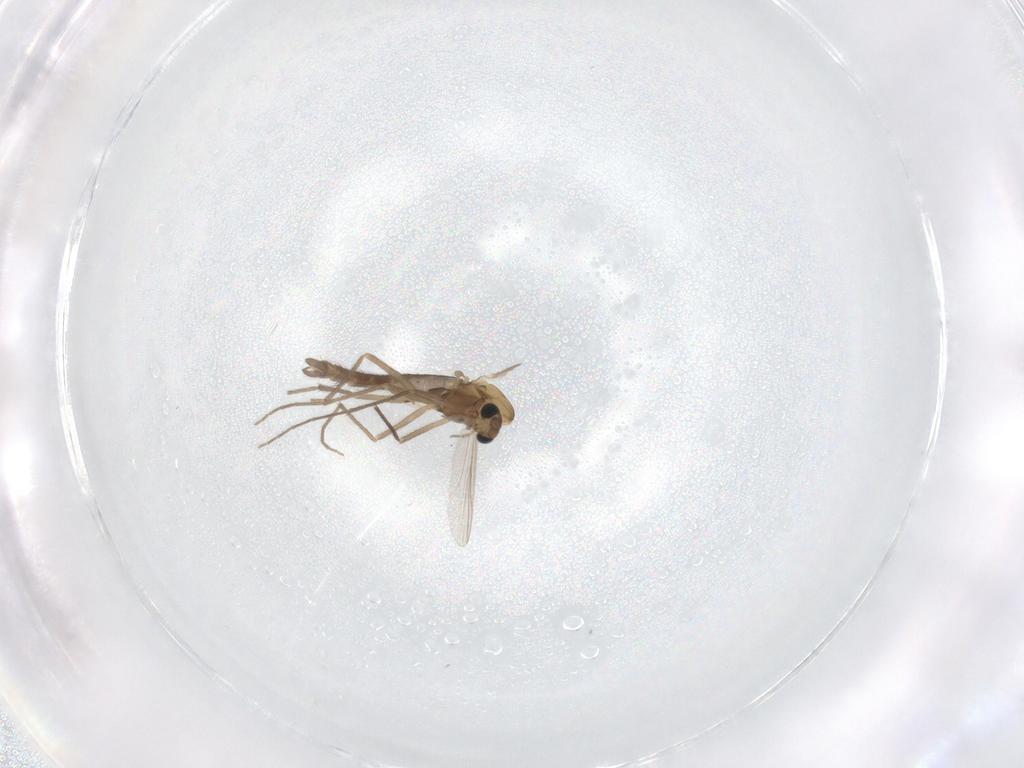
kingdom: Animalia
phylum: Arthropoda
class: Insecta
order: Diptera
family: Chironomidae
